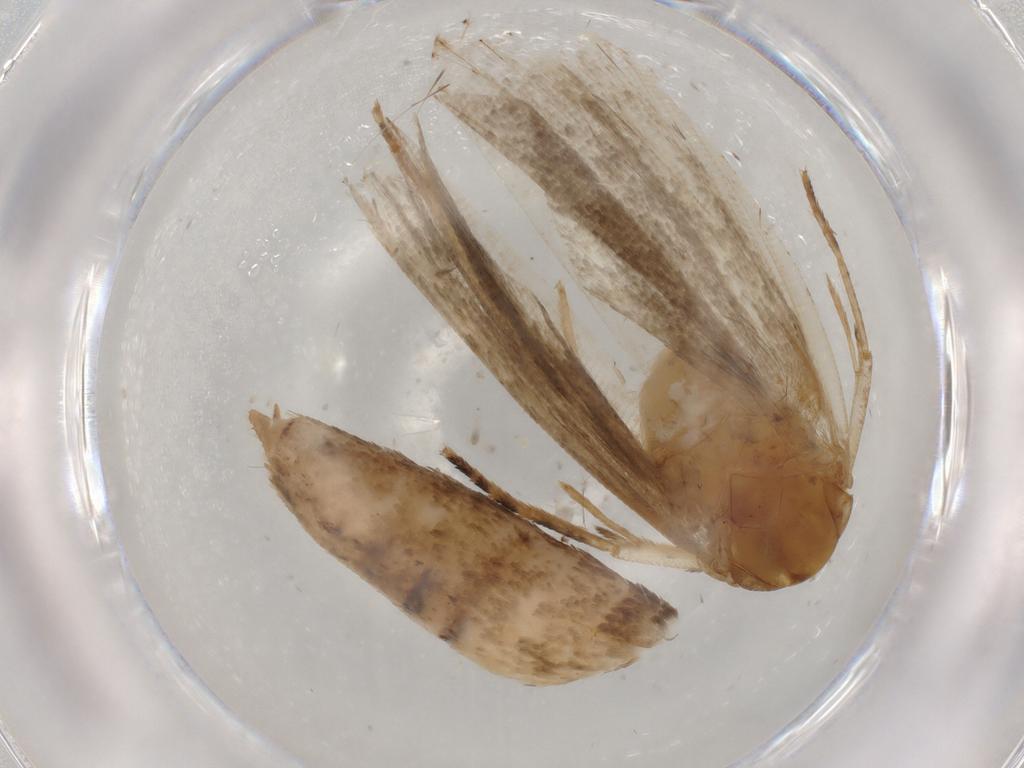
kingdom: Animalia
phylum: Arthropoda
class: Insecta
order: Lepidoptera
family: Tortricidae
